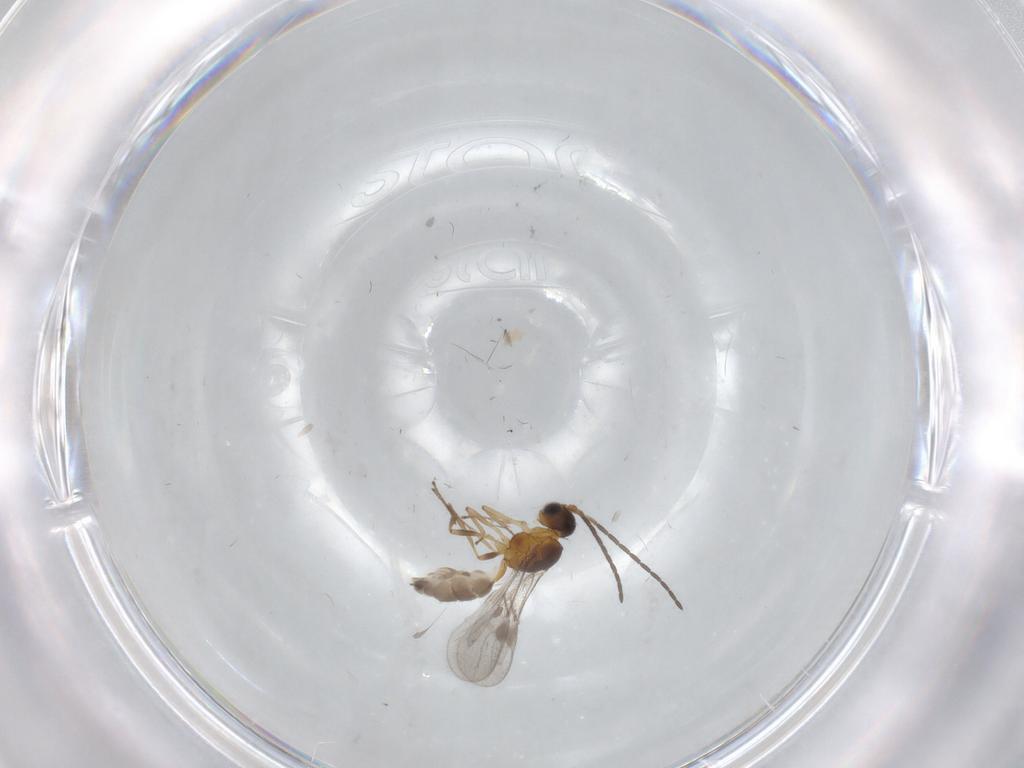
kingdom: Animalia
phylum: Arthropoda
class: Insecta
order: Hymenoptera
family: Braconidae
